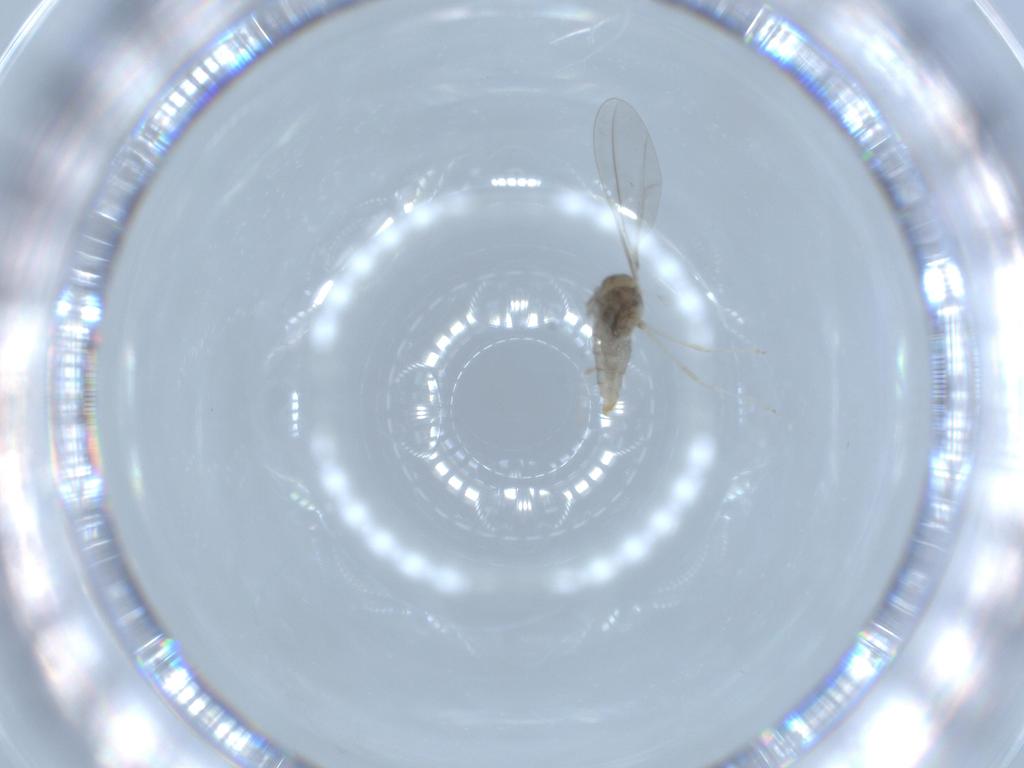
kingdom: Animalia
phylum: Arthropoda
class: Insecta
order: Diptera
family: Cecidomyiidae
